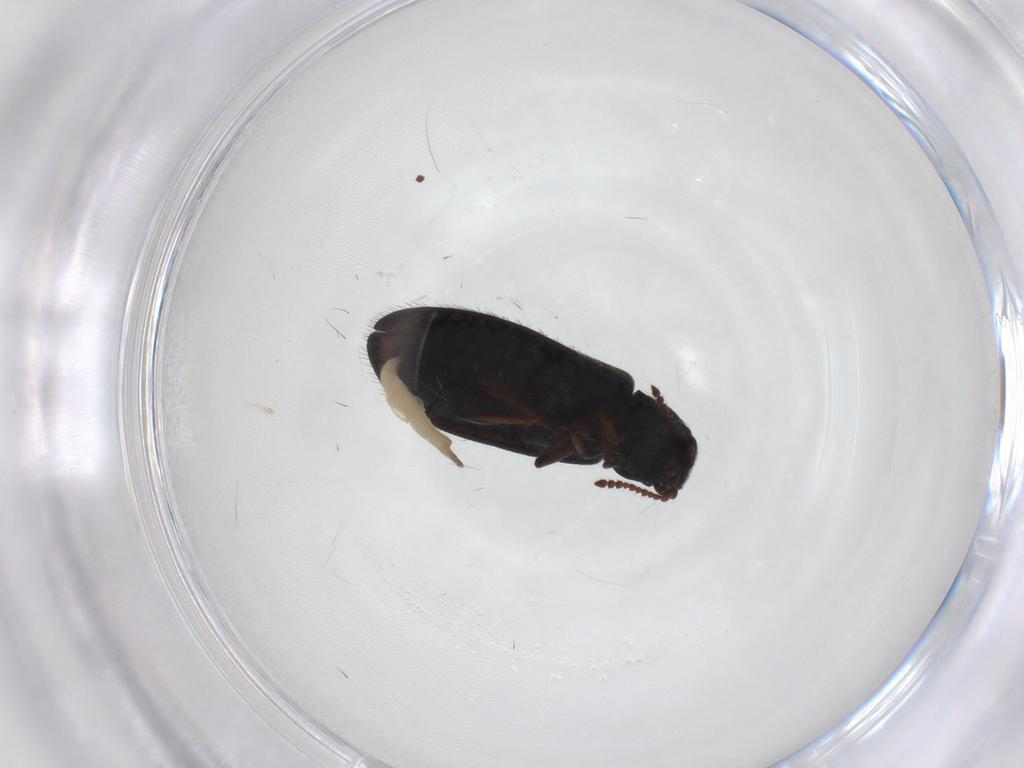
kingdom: Animalia
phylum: Arthropoda
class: Insecta
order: Coleoptera
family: Melyridae
